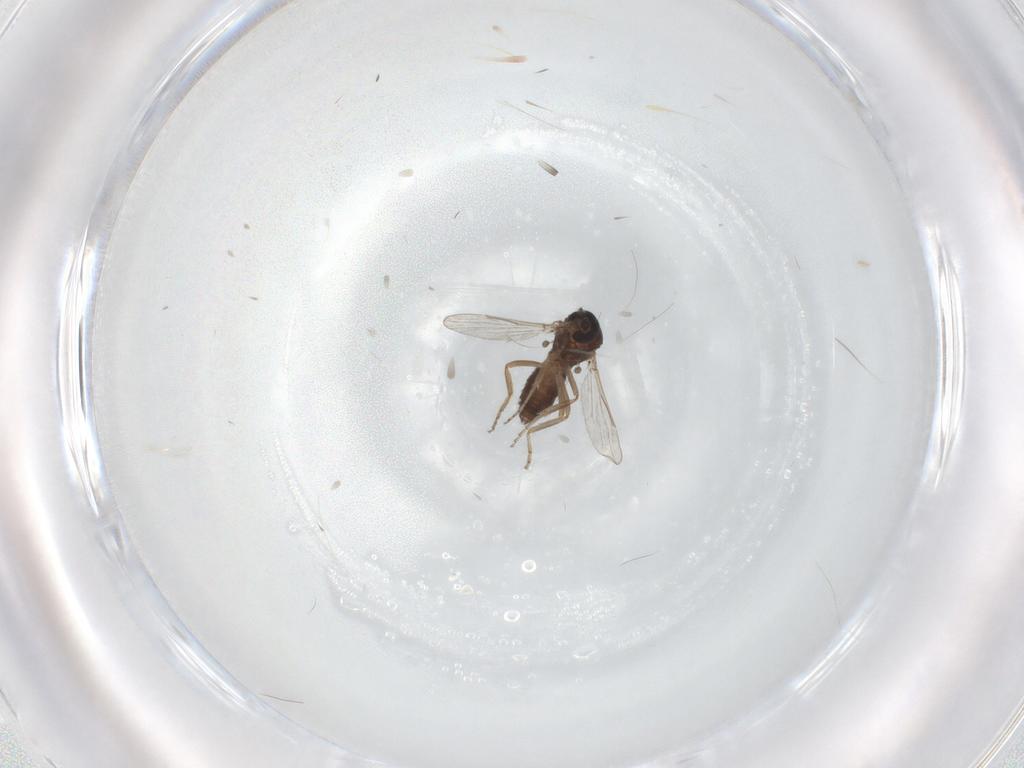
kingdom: Animalia
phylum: Arthropoda
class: Insecta
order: Diptera
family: Ceratopogonidae
